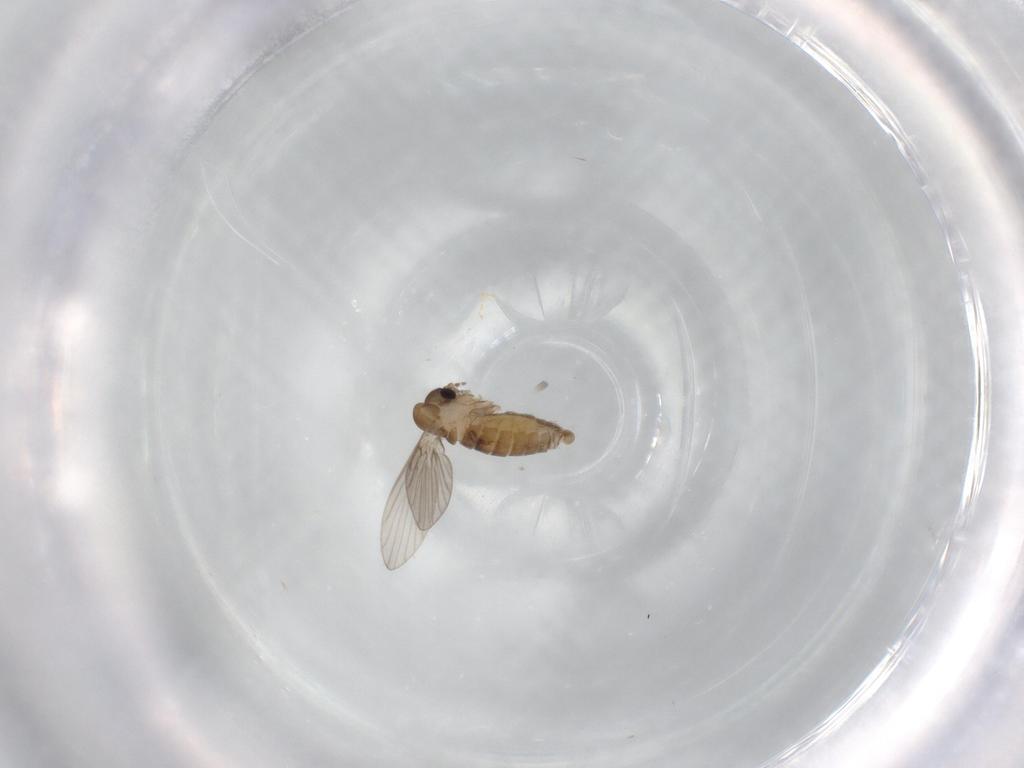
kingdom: Animalia
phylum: Arthropoda
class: Insecta
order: Diptera
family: Psychodidae
